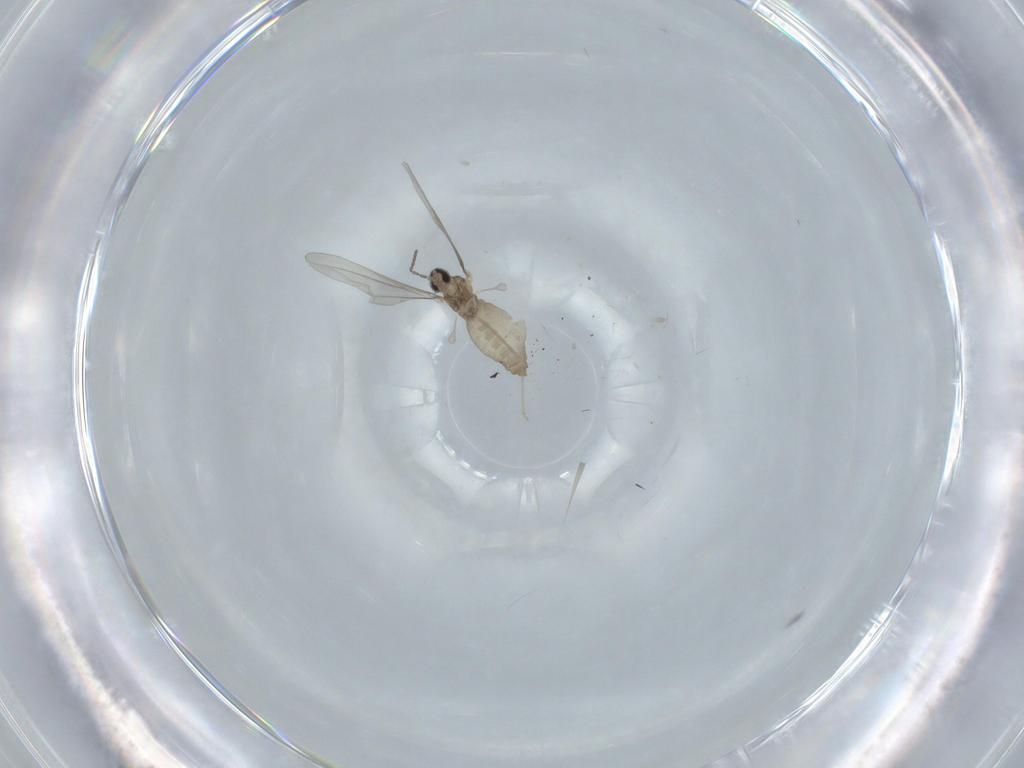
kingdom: Animalia
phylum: Arthropoda
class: Insecta
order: Diptera
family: Cecidomyiidae
